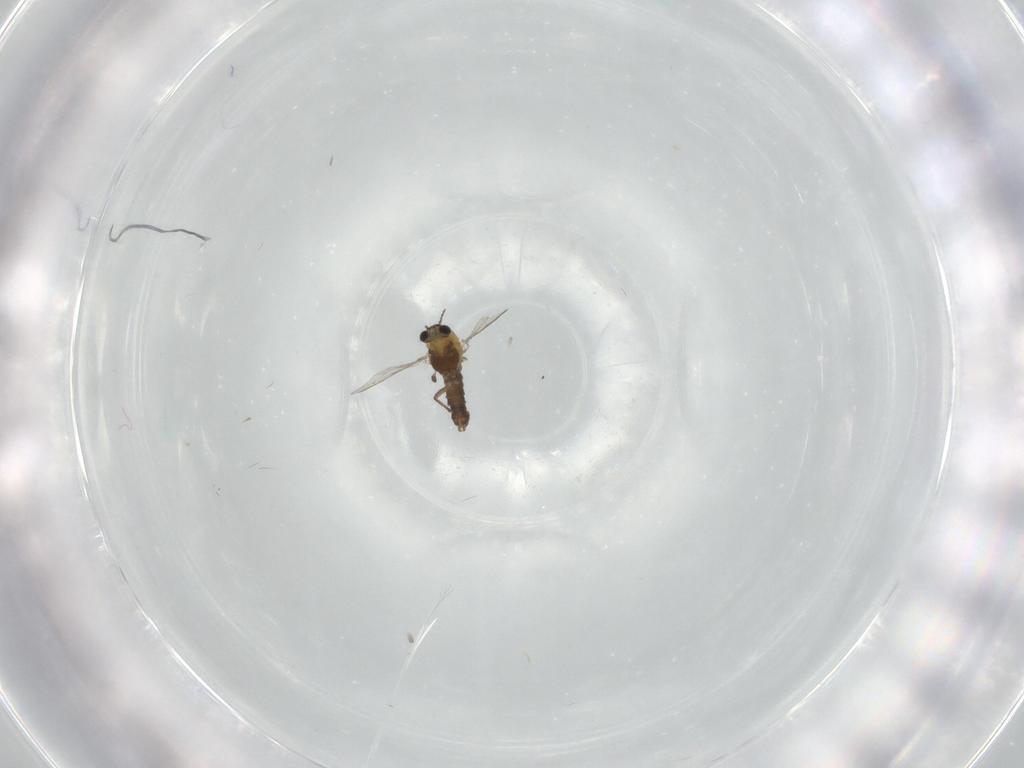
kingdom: Animalia
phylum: Arthropoda
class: Insecta
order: Diptera
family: Chironomidae
